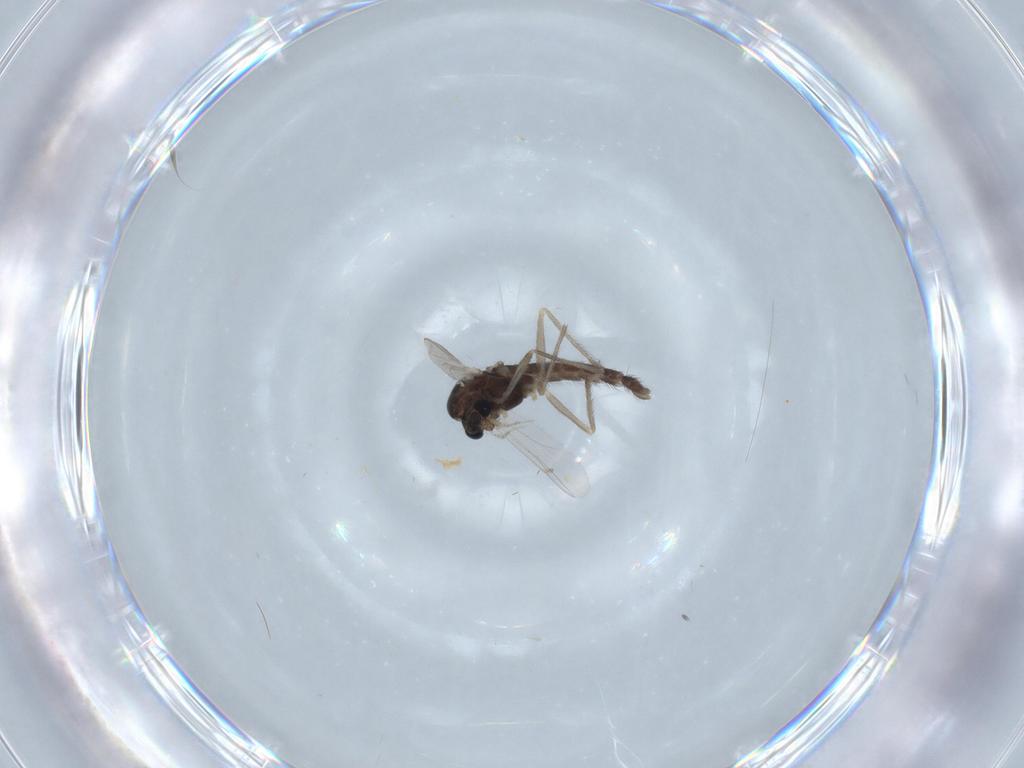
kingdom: Animalia
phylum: Arthropoda
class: Insecta
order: Diptera
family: Chironomidae
